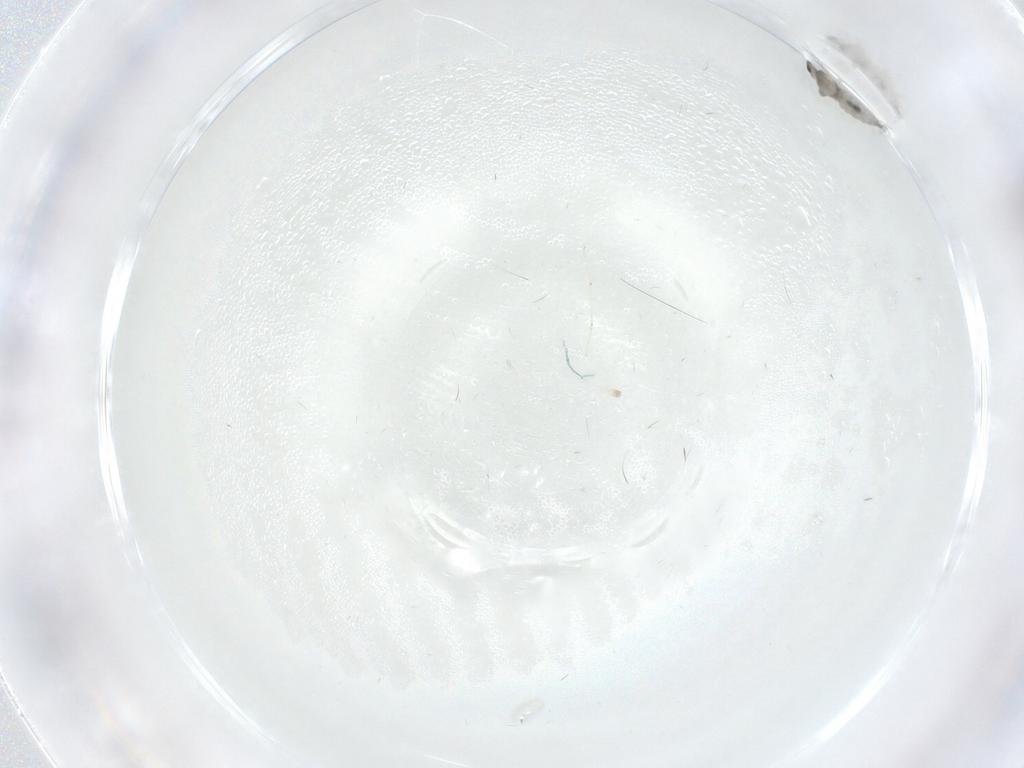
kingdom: Animalia
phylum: Arthropoda
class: Insecta
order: Diptera
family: Cecidomyiidae
